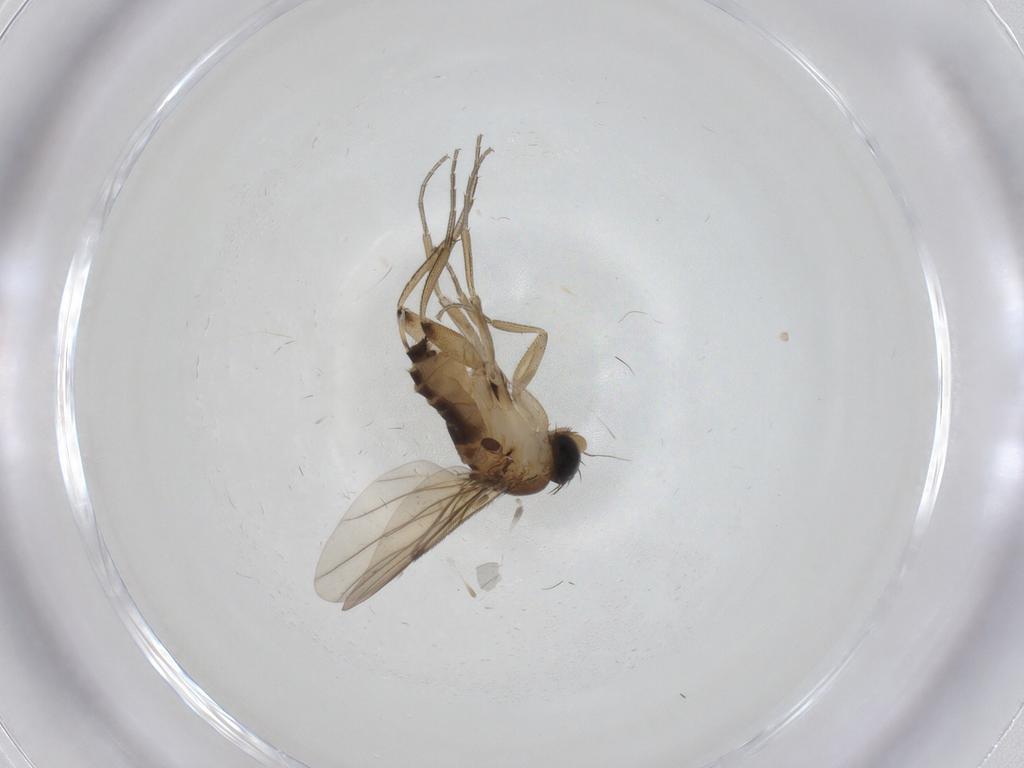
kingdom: Animalia
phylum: Arthropoda
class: Insecta
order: Diptera
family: Phoridae
